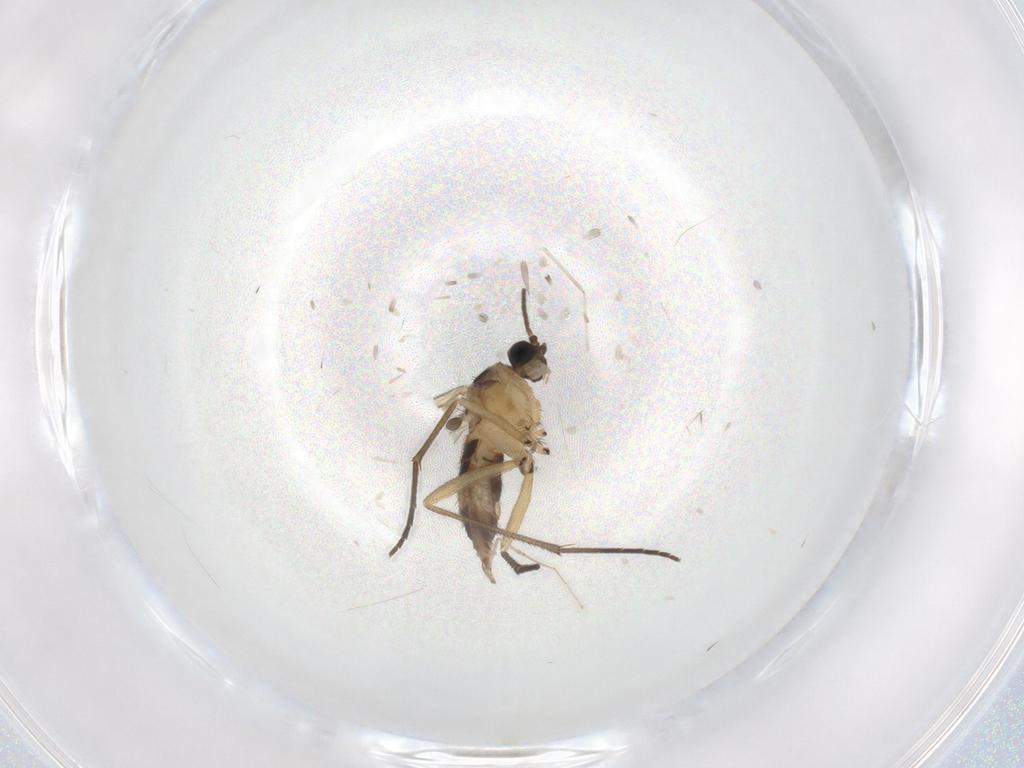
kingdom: Animalia
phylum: Arthropoda
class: Insecta
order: Diptera
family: Sciaridae
